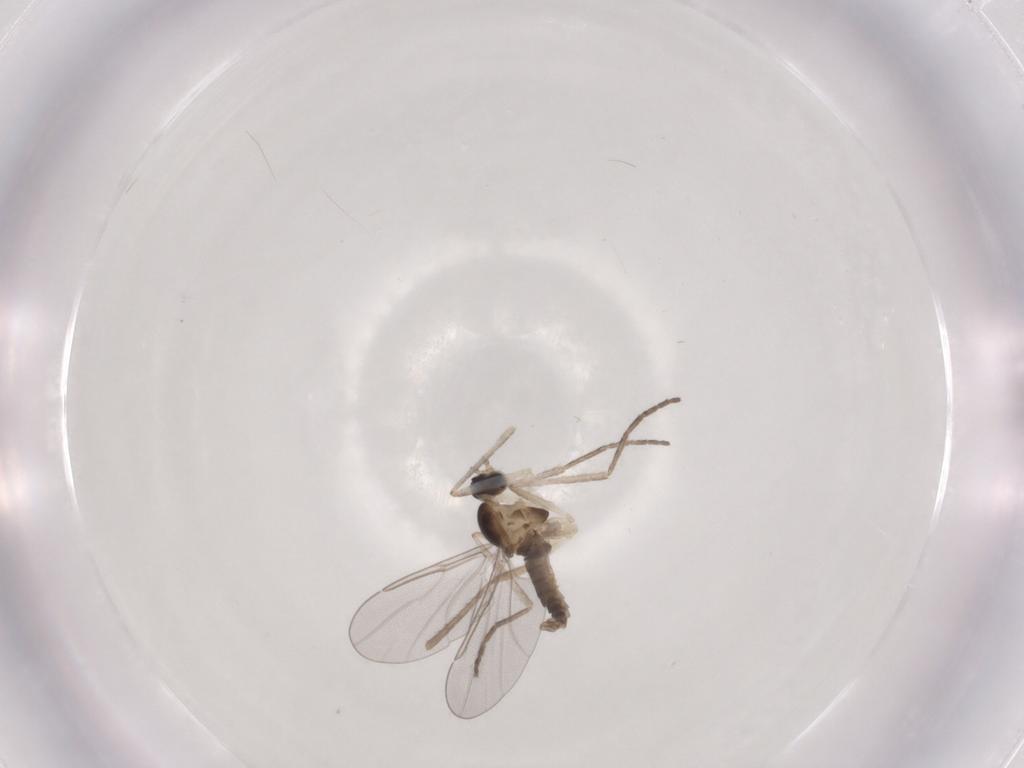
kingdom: Animalia
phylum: Arthropoda
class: Insecta
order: Diptera
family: Cecidomyiidae
